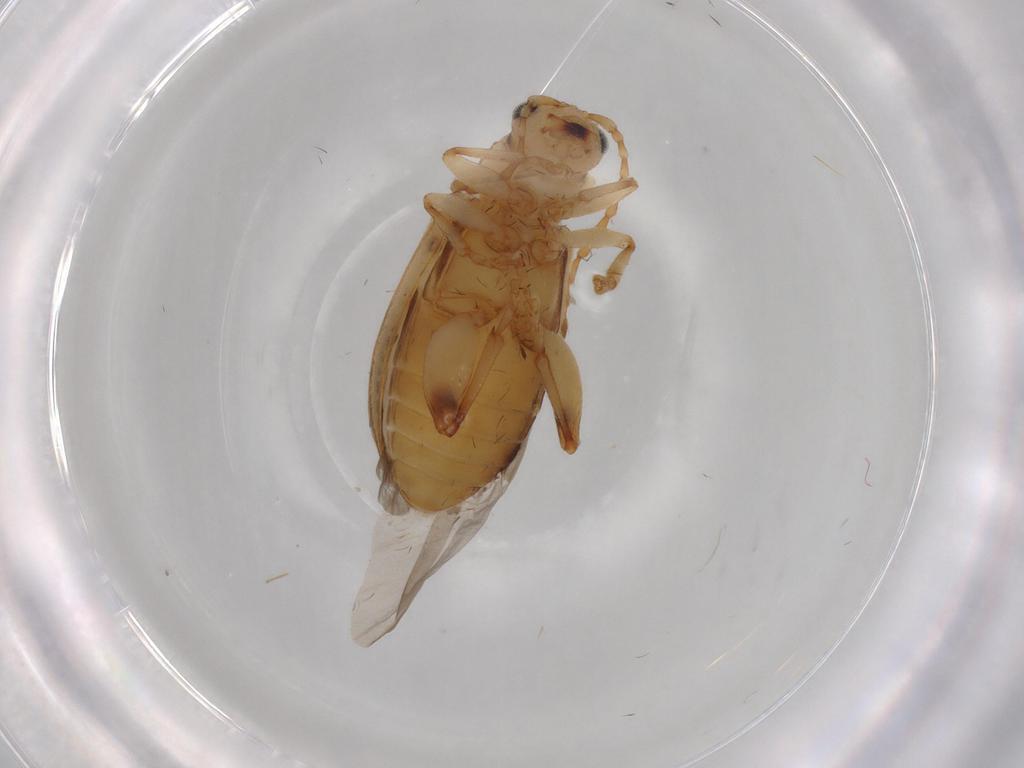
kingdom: Animalia
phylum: Arthropoda
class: Insecta
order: Coleoptera
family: Chrysomelidae
